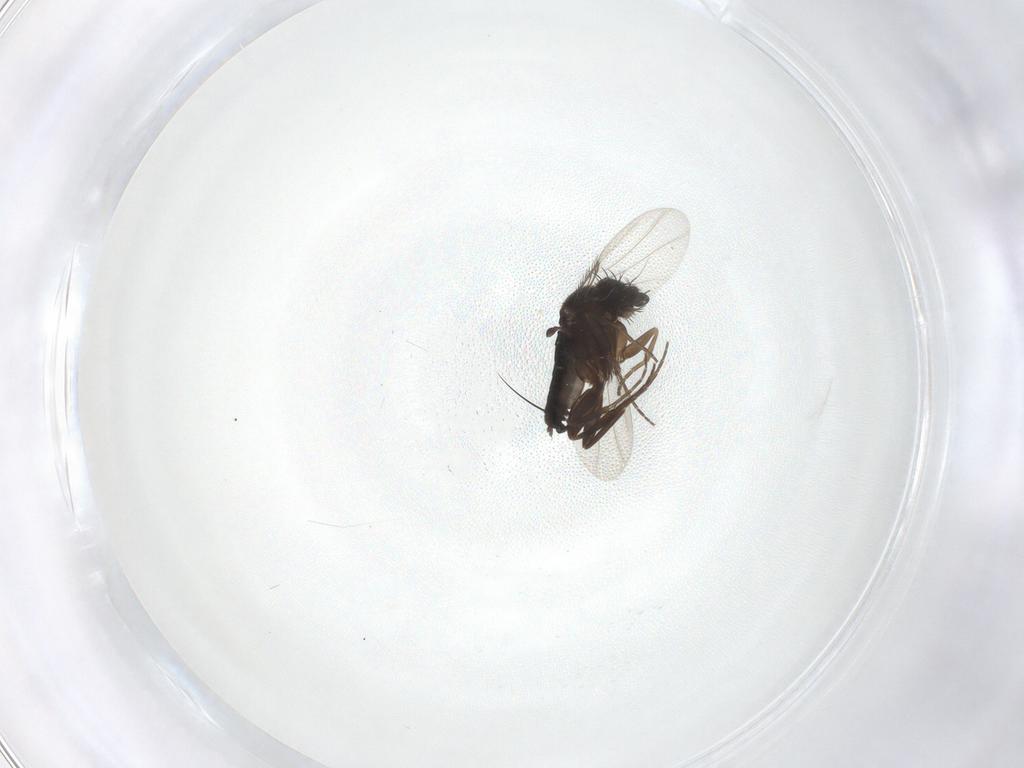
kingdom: Animalia
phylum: Arthropoda
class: Insecta
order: Diptera
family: Phoridae
